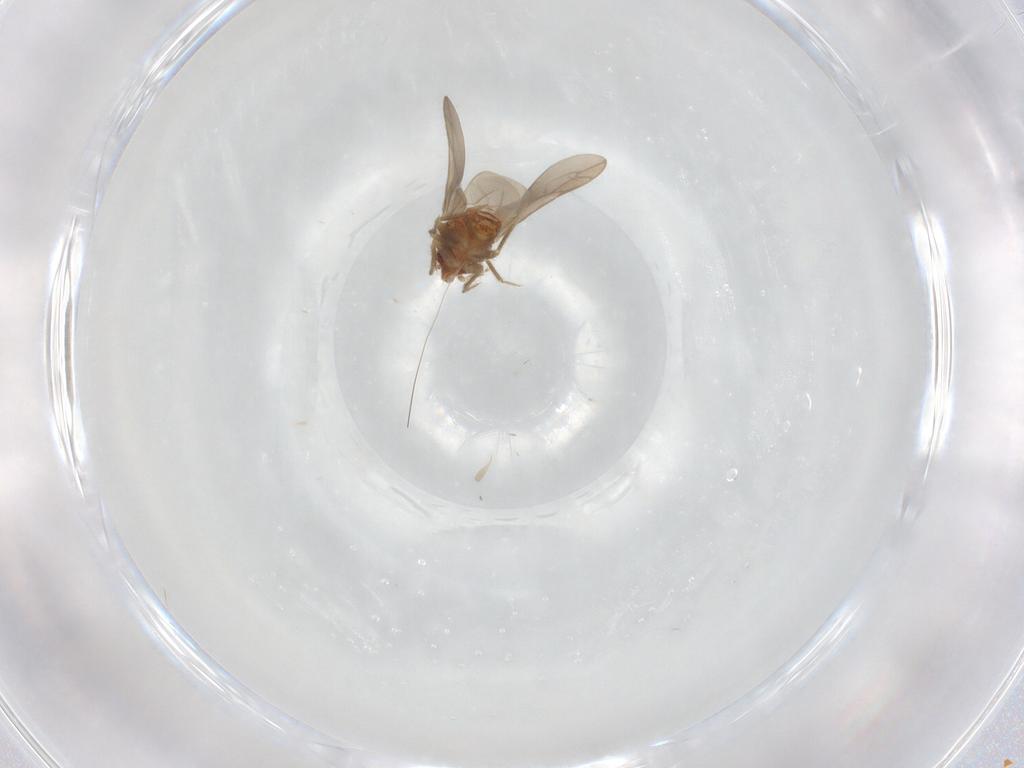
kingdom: Animalia
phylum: Arthropoda
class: Insecta
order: Hemiptera
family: Ceratocombidae
